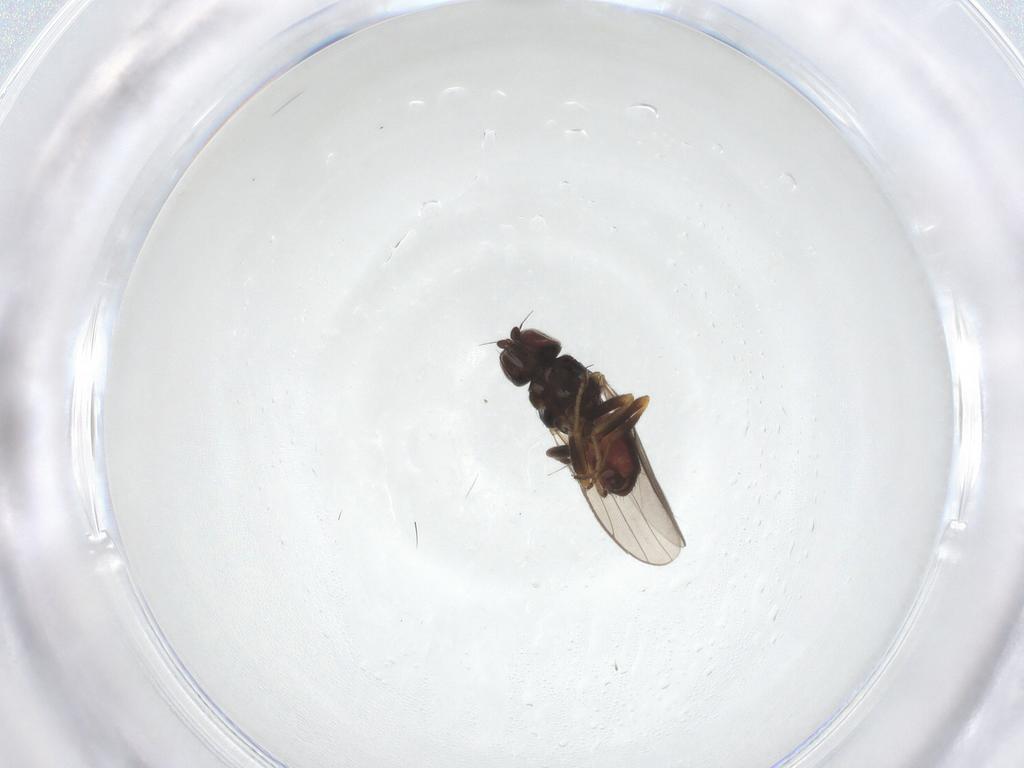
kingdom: Animalia
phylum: Arthropoda
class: Insecta
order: Diptera
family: Chloropidae
